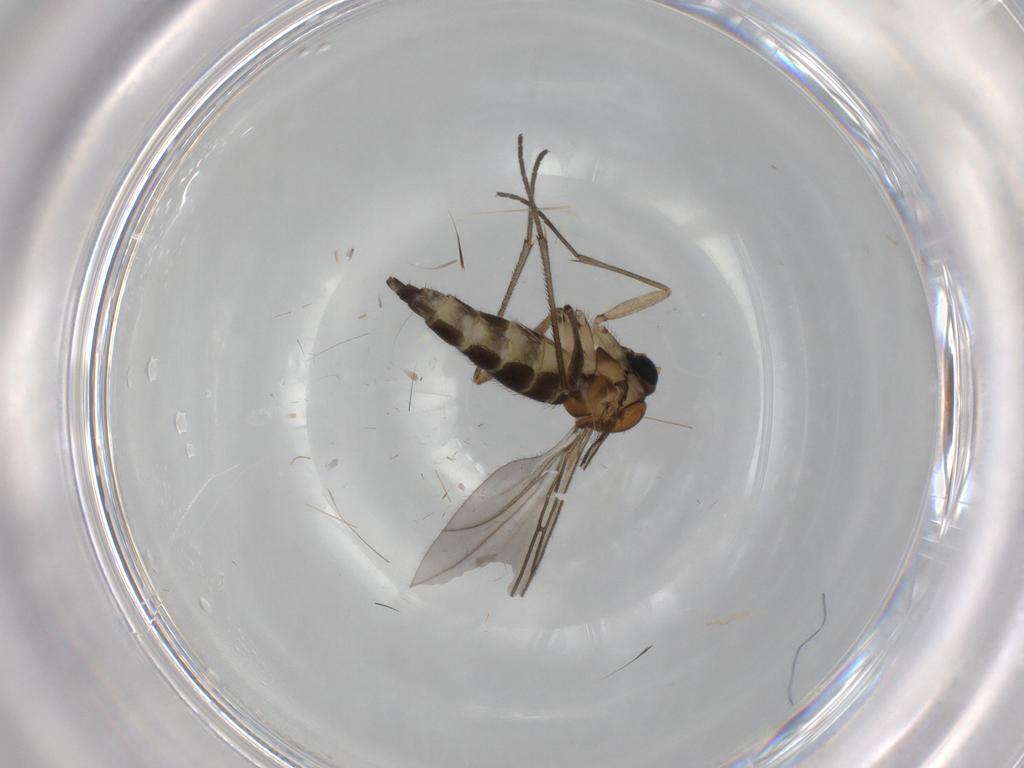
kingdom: Animalia
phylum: Arthropoda
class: Insecta
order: Diptera
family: Sciaridae
